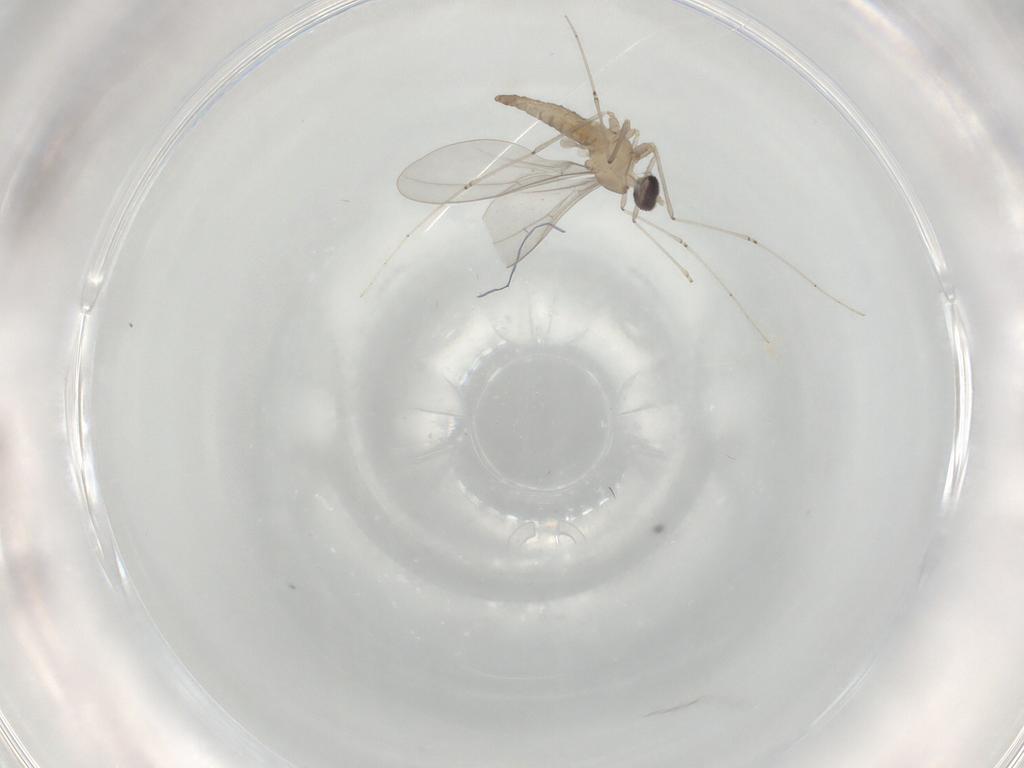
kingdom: Animalia
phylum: Arthropoda
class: Insecta
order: Diptera
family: Cecidomyiidae
